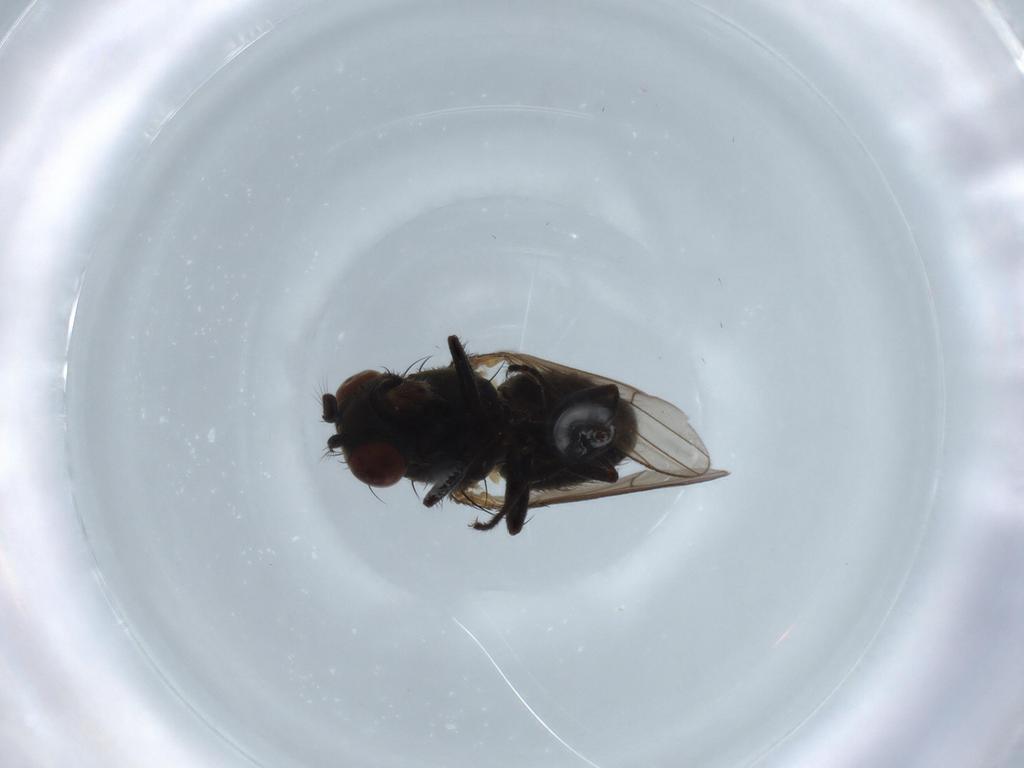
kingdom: Animalia
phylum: Arthropoda
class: Insecta
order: Diptera
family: Ephydridae
